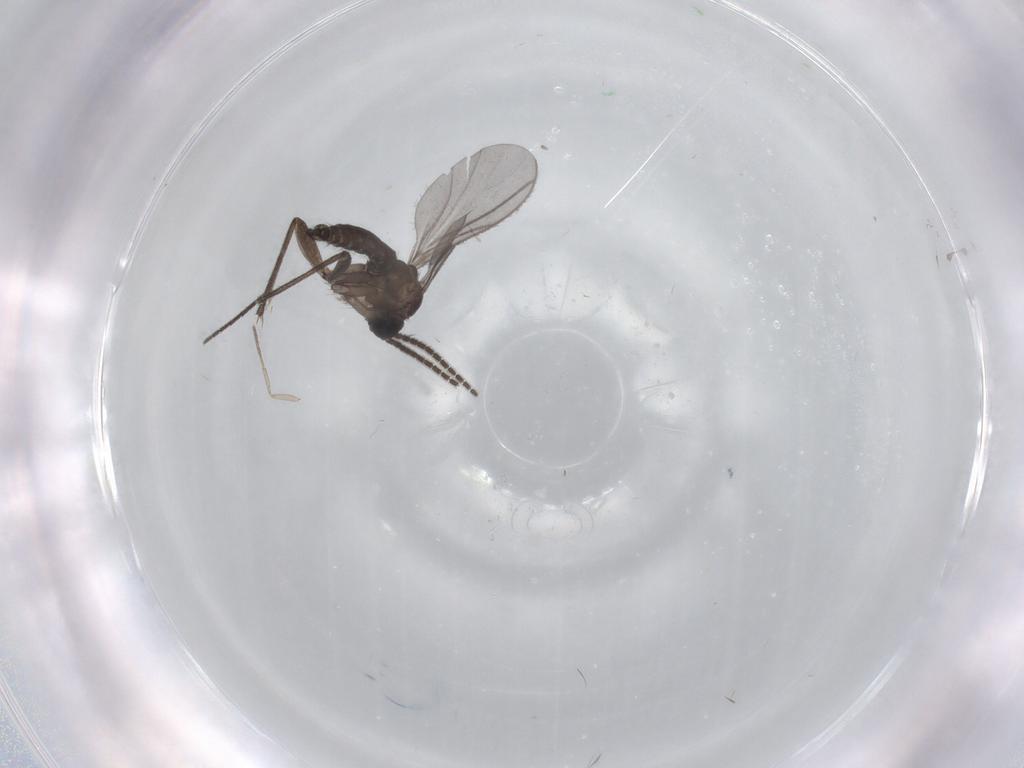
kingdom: Animalia
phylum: Arthropoda
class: Insecta
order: Diptera
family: Sciaridae
